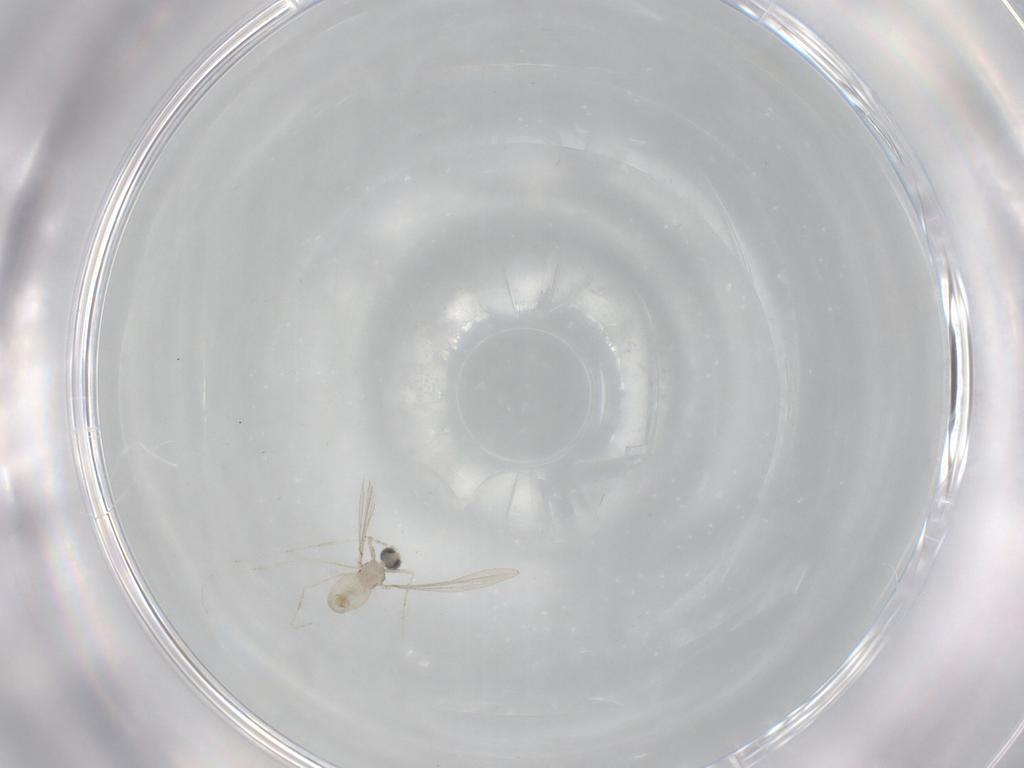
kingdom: Animalia
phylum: Arthropoda
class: Insecta
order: Diptera
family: Cecidomyiidae
